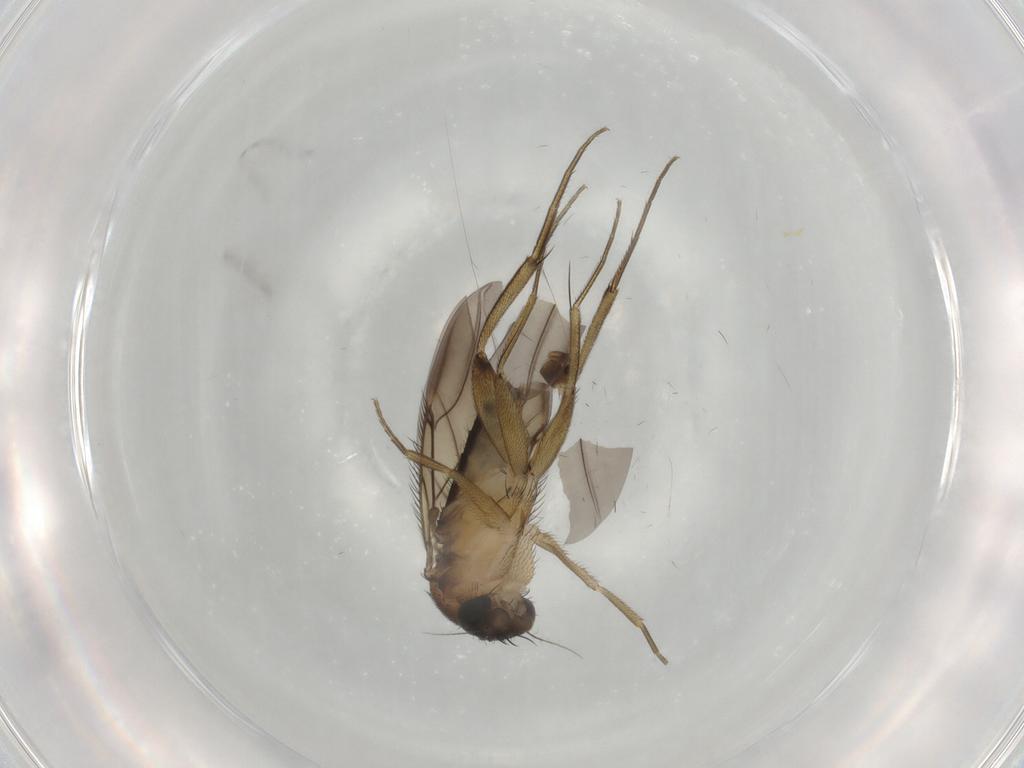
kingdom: Animalia
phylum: Arthropoda
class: Insecta
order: Diptera
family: Phoridae
